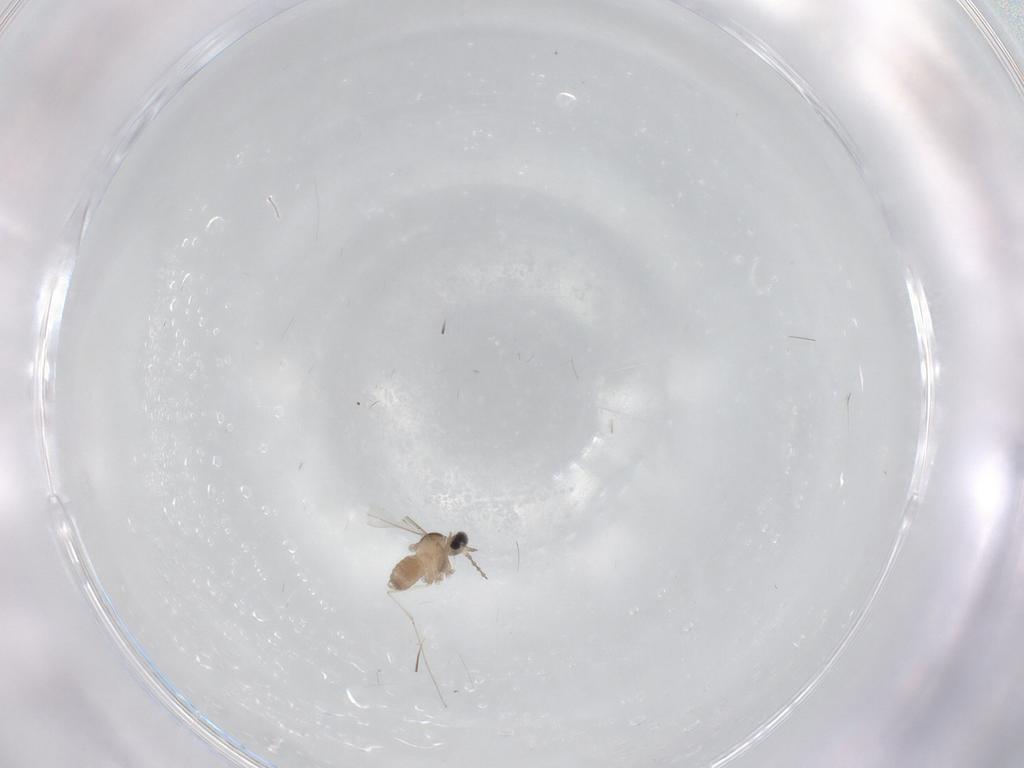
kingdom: Animalia
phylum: Arthropoda
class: Insecta
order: Diptera
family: Cecidomyiidae
